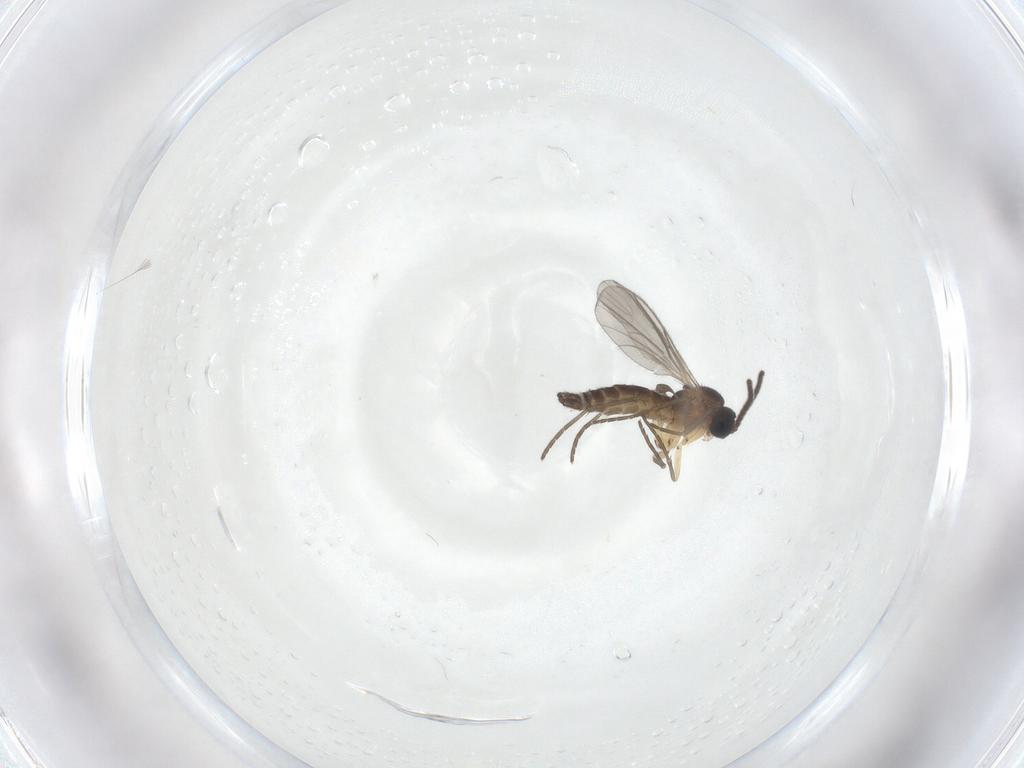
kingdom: Animalia
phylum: Arthropoda
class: Insecta
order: Diptera
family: Sciaridae
